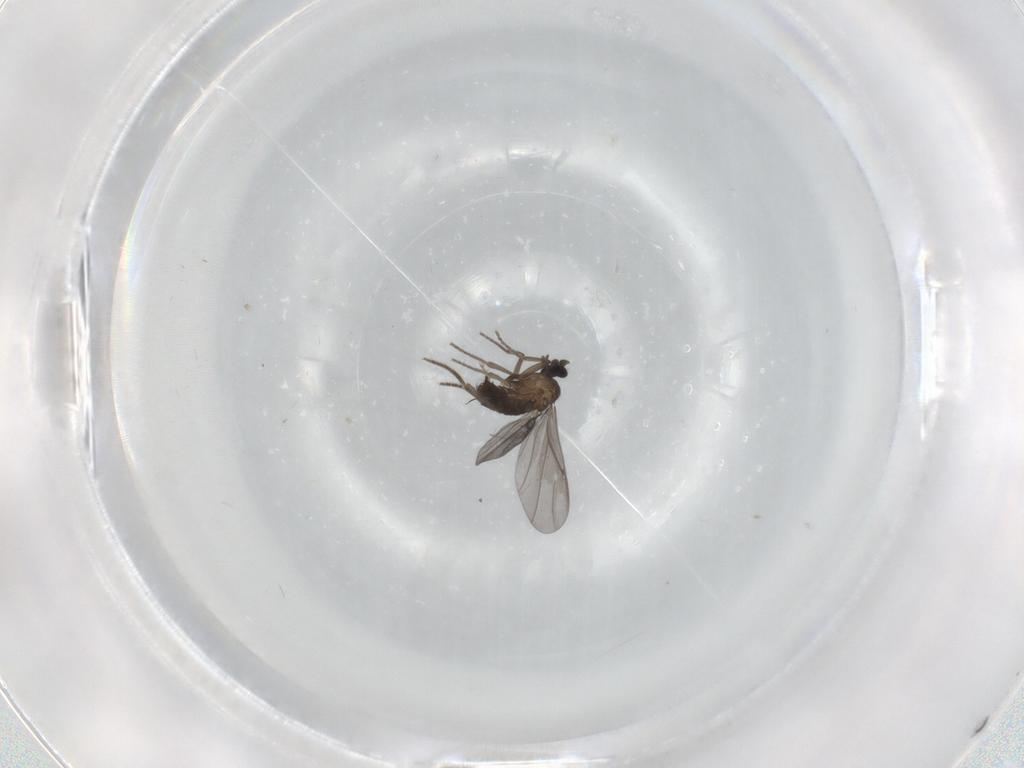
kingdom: Animalia
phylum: Arthropoda
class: Insecta
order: Diptera
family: Phoridae
